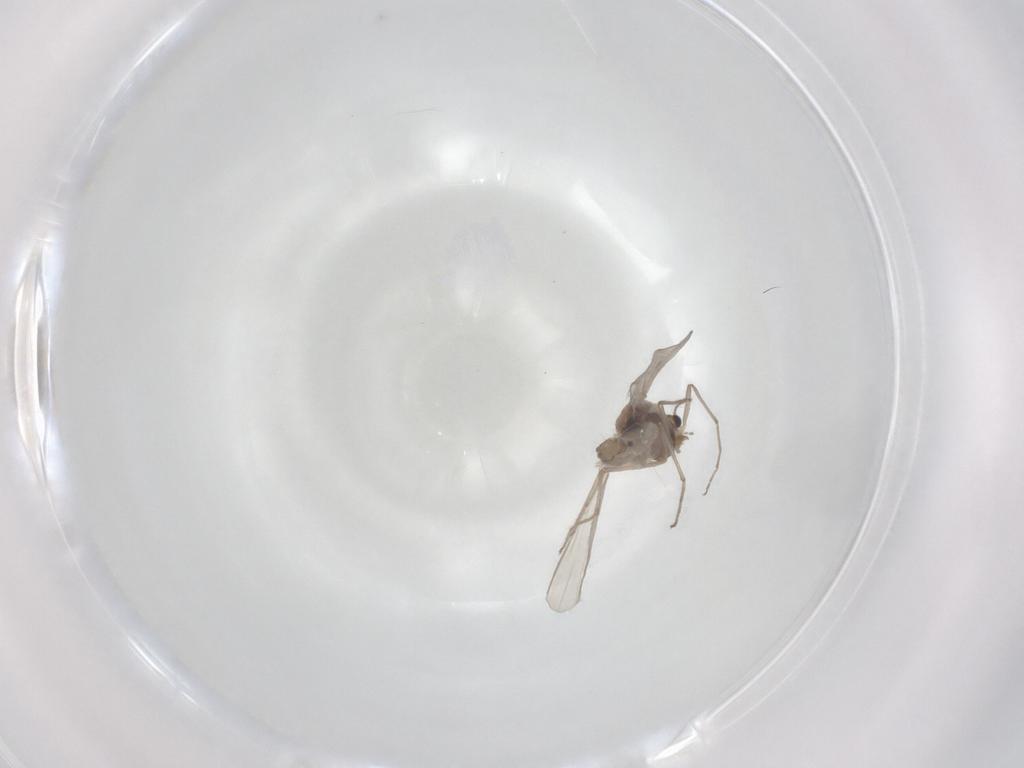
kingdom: Animalia
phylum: Arthropoda
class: Insecta
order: Diptera
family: Chironomidae
